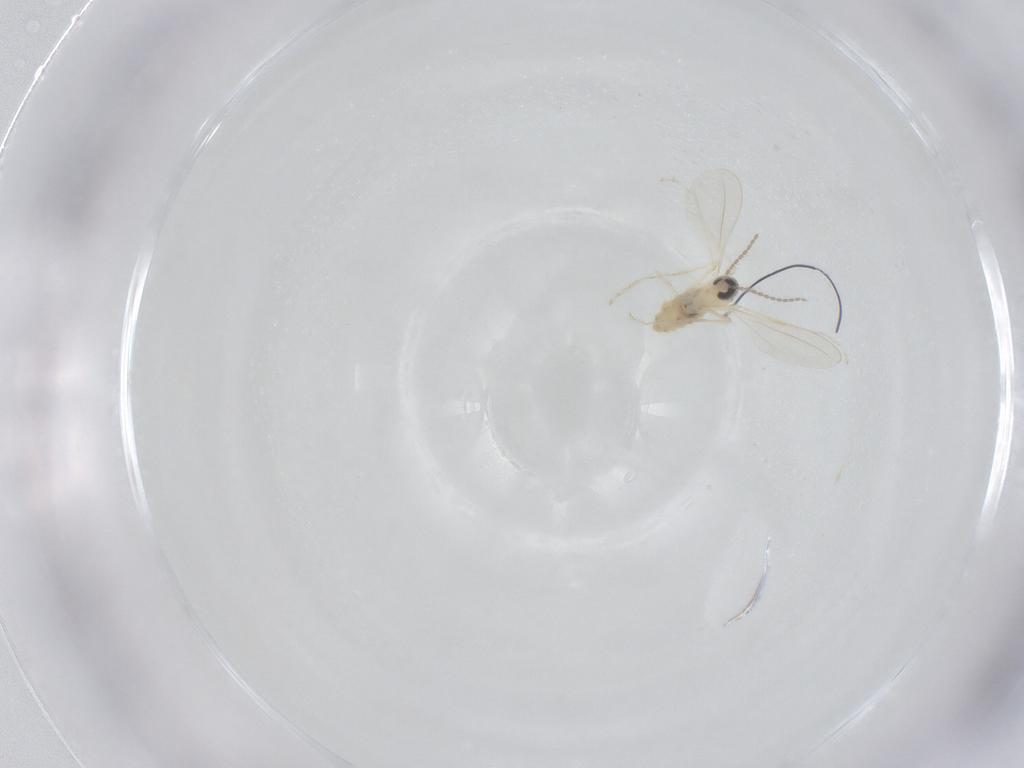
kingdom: Animalia
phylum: Arthropoda
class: Insecta
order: Diptera
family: Cecidomyiidae
